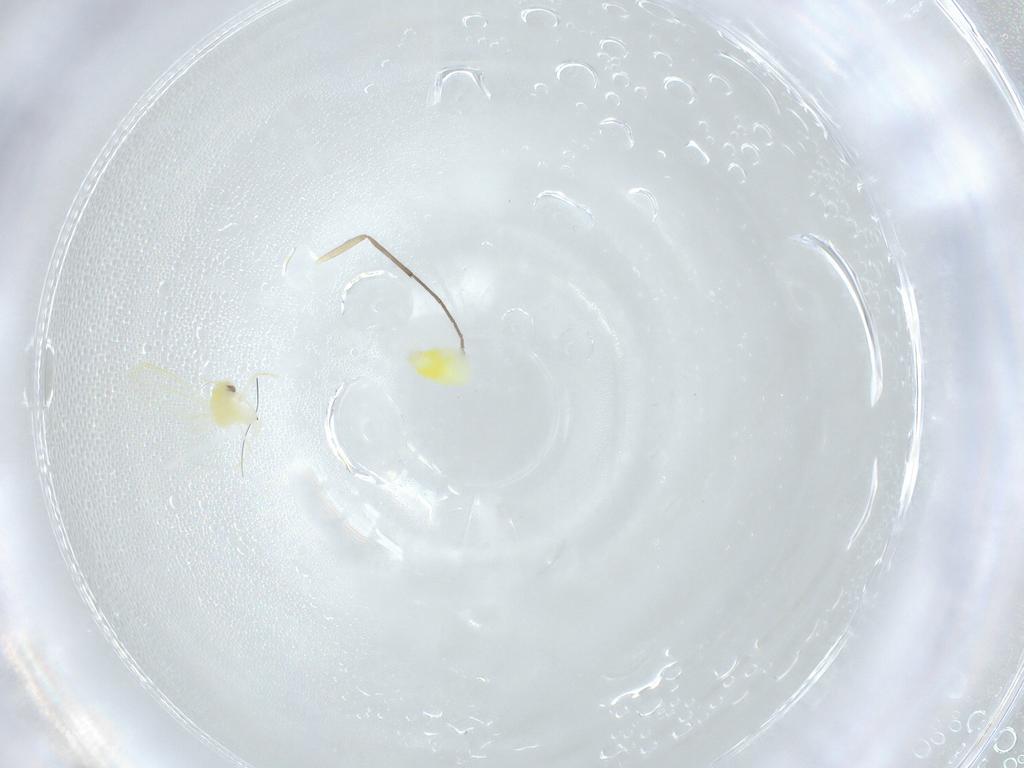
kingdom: Animalia
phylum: Arthropoda
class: Insecta
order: Hemiptera
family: Aleyrodidae
